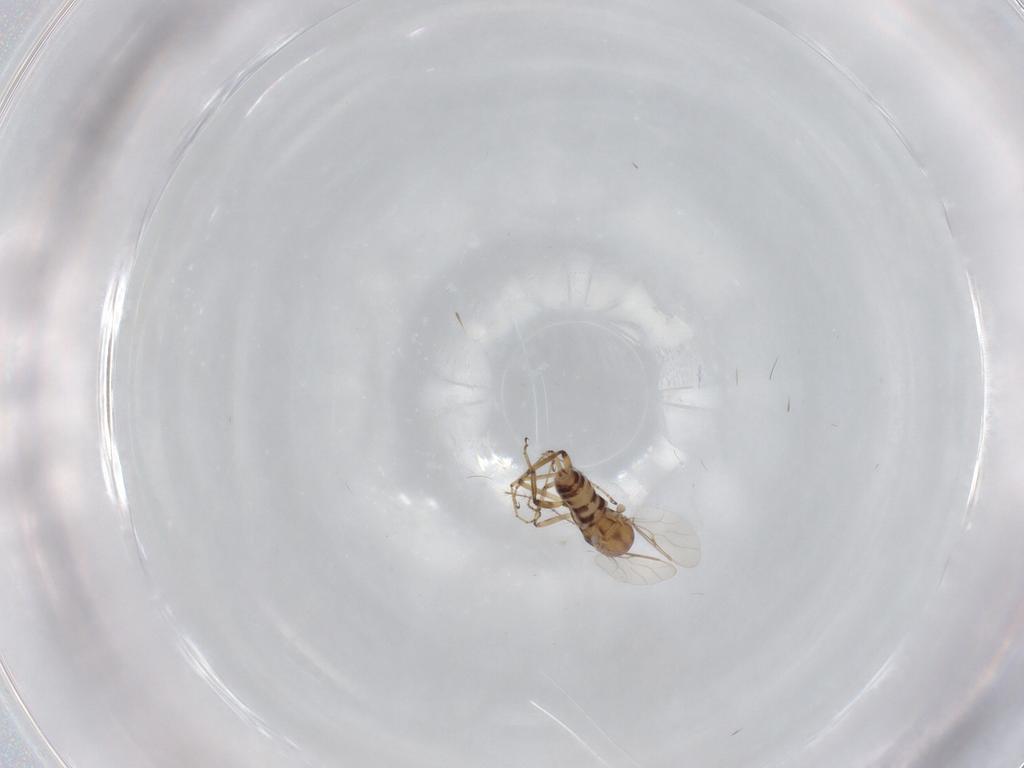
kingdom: Animalia
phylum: Arthropoda
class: Insecta
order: Diptera
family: Ceratopogonidae
